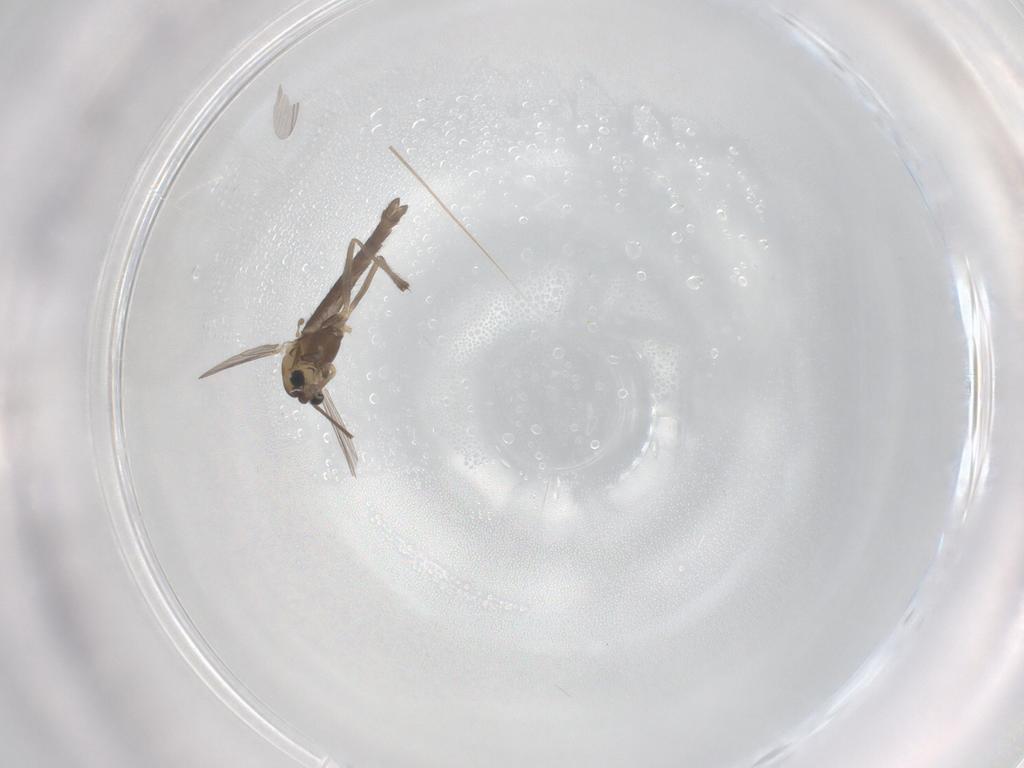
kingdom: Animalia
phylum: Arthropoda
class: Insecta
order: Diptera
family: Chironomidae
